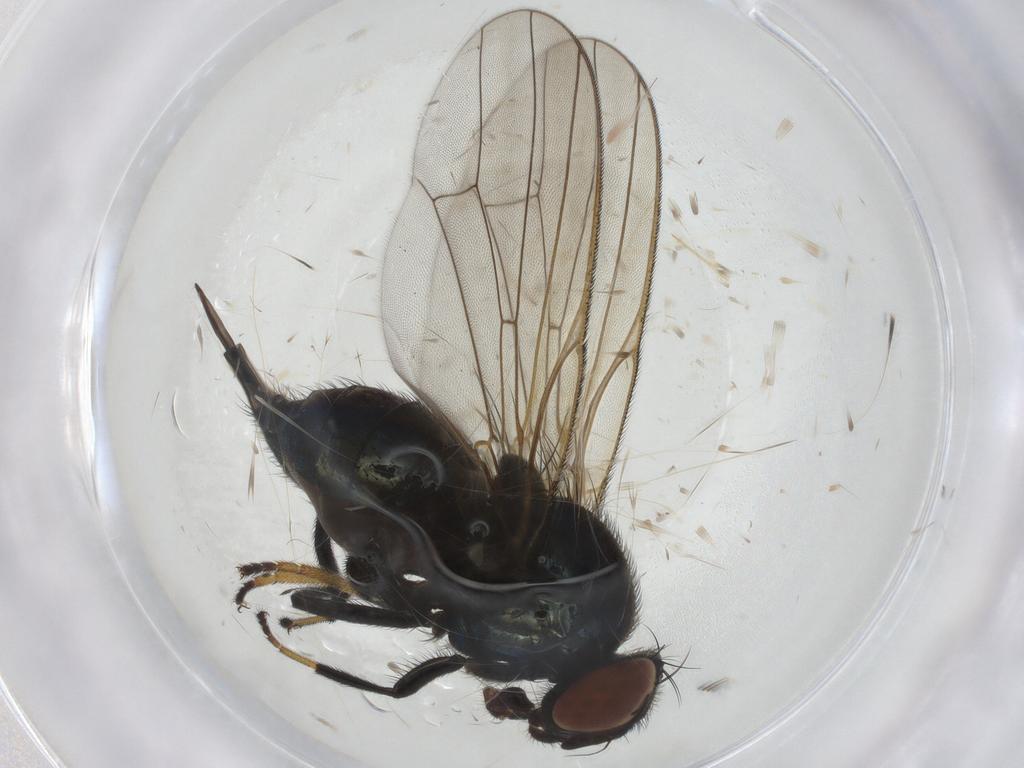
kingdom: Animalia
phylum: Arthropoda
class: Insecta
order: Diptera
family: Lonchaeidae
